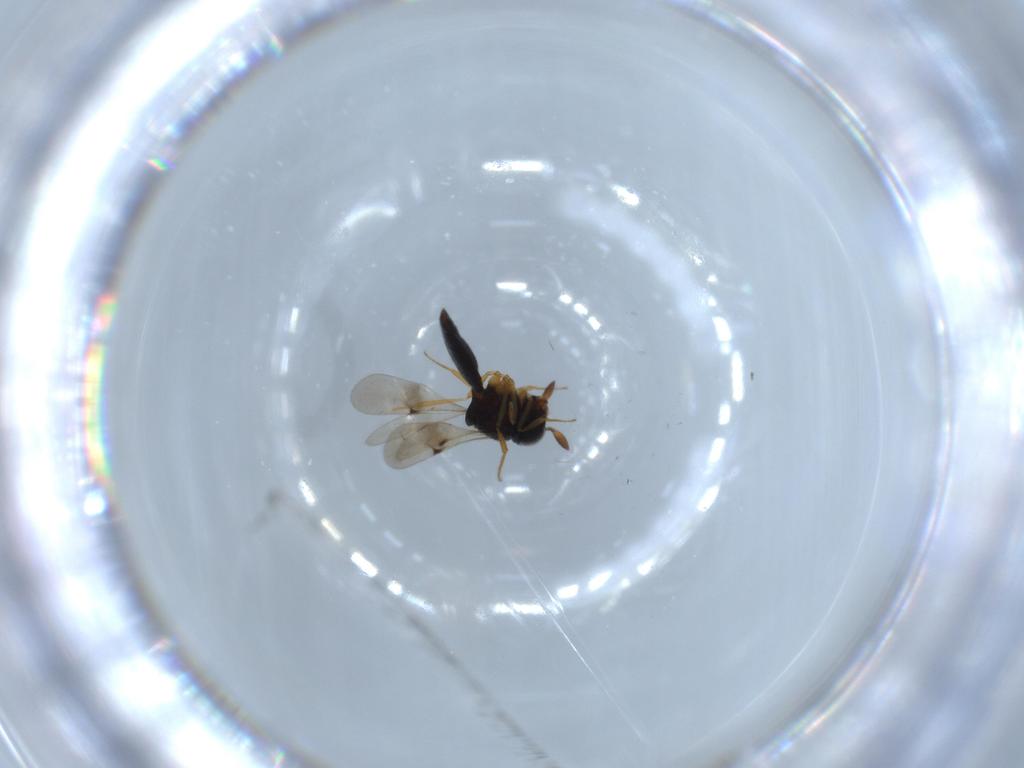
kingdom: Animalia
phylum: Arthropoda
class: Insecta
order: Hymenoptera
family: Scelionidae
